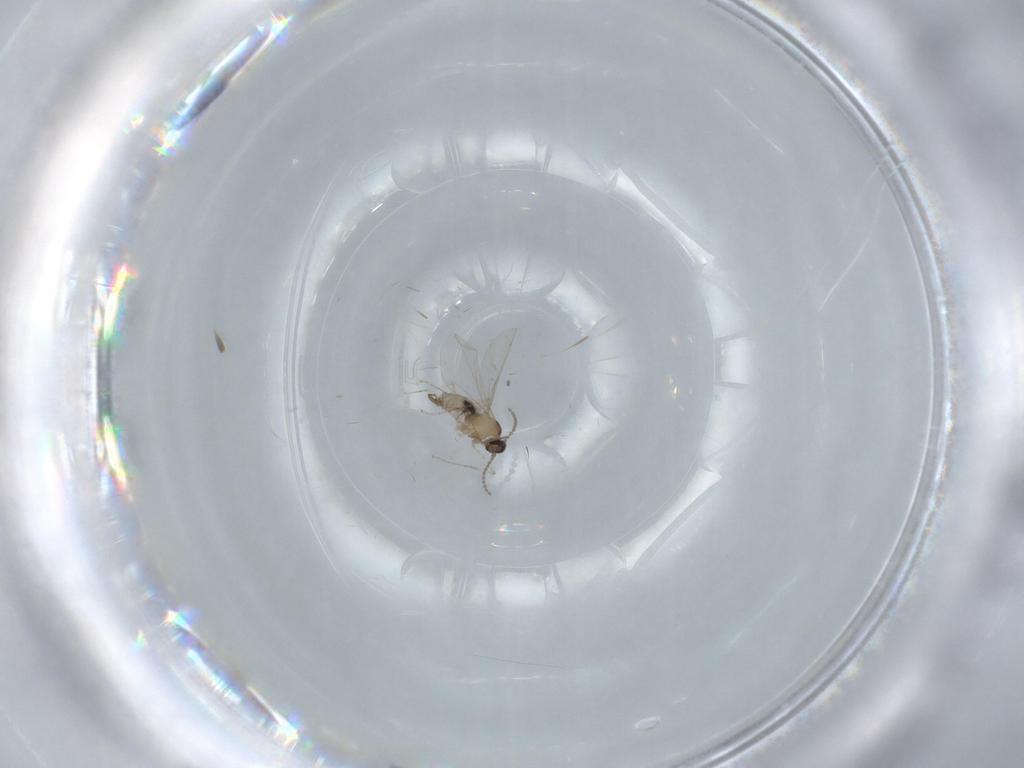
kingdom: Animalia
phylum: Arthropoda
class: Insecta
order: Diptera
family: Cecidomyiidae
